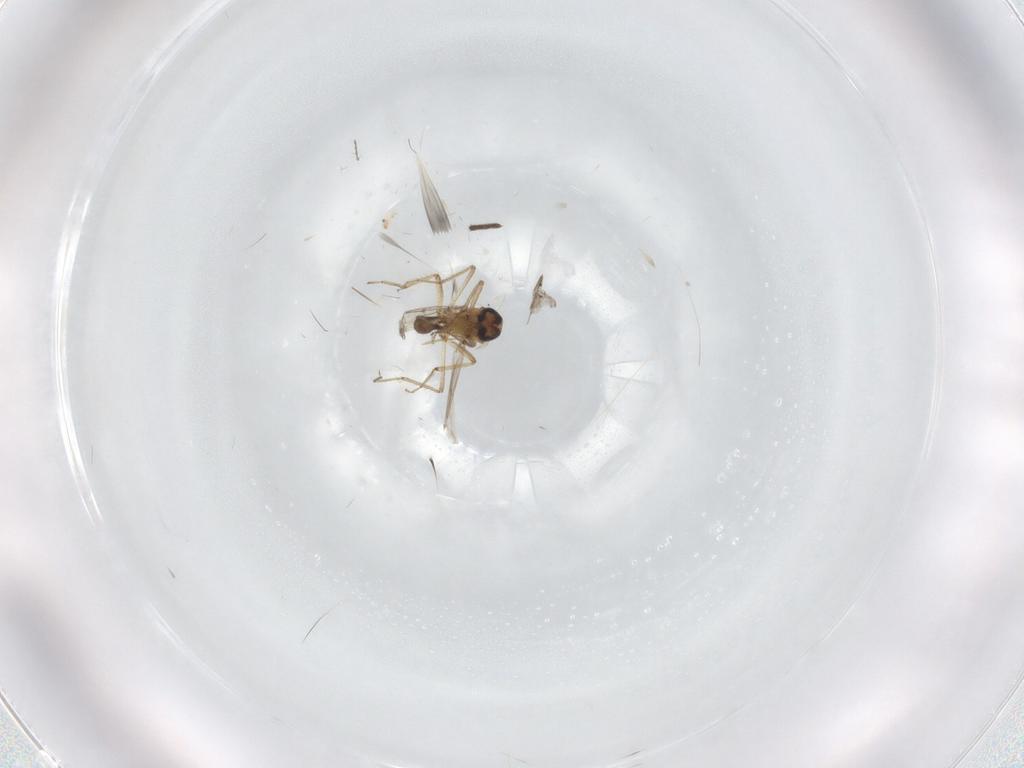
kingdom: Animalia
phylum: Arthropoda
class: Insecta
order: Diptera
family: Ceratopogonidae
